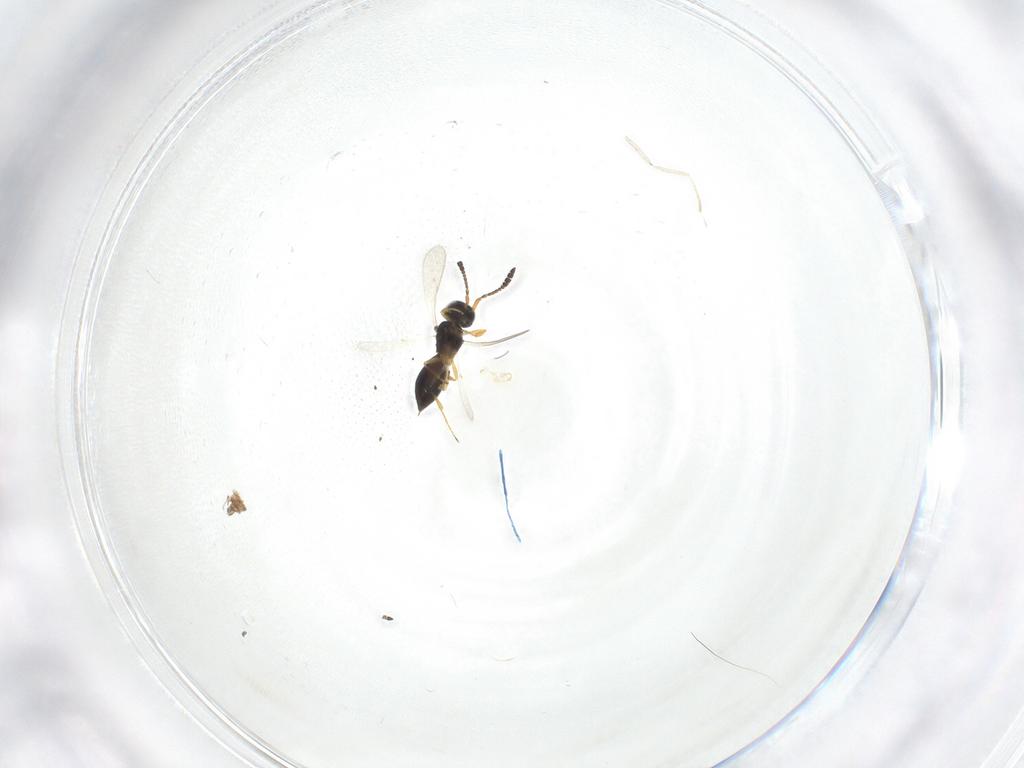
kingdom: Animalia
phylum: Arthropoda
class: Insecta
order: Hymenoptera
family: Scelionidae
